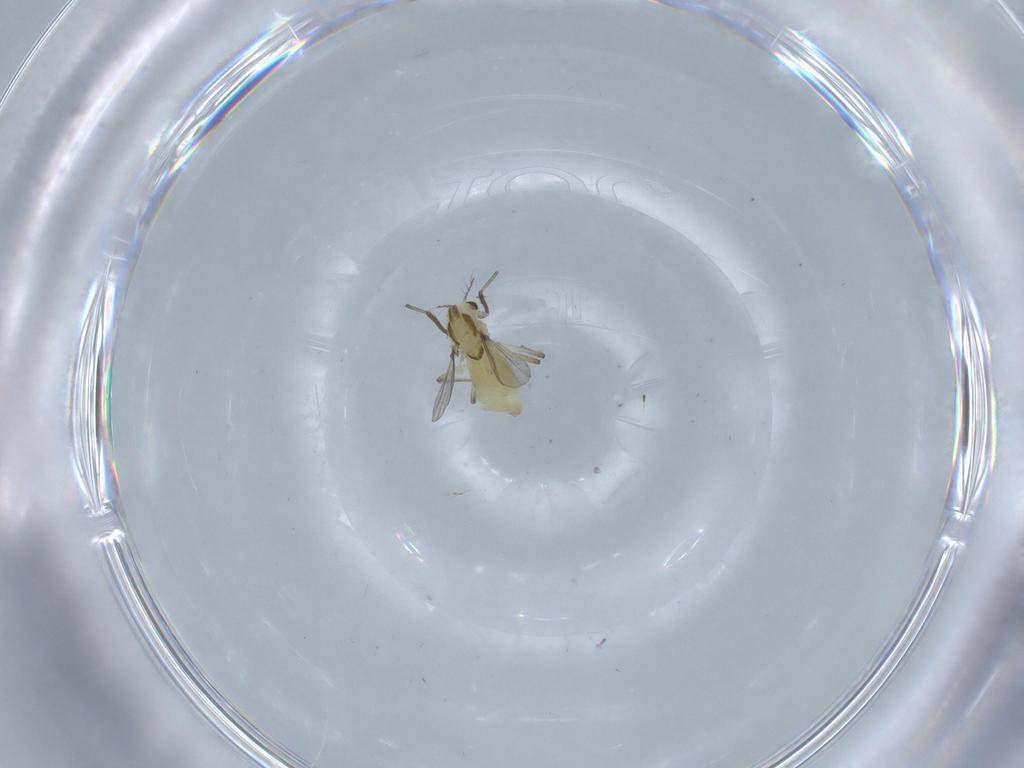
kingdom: Animalia
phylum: Arthropoda
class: Insecta
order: Diptera
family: Chironomidae
